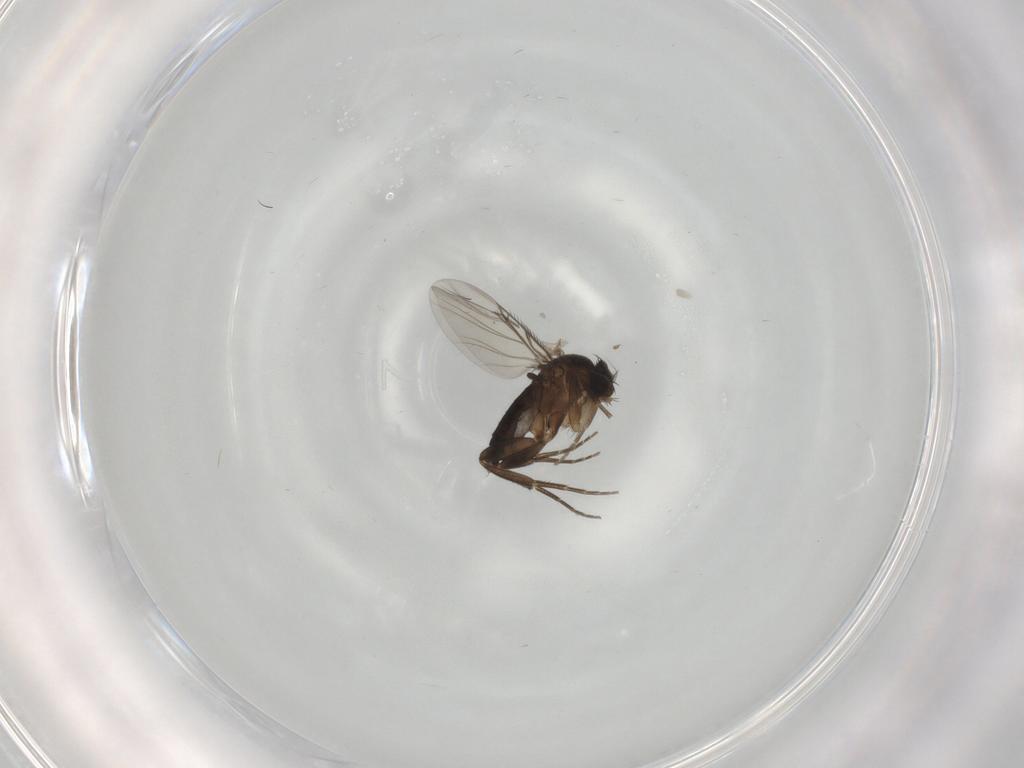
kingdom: Animalia
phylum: Arthropoda
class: Insecta
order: Diptera
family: Phoridae
